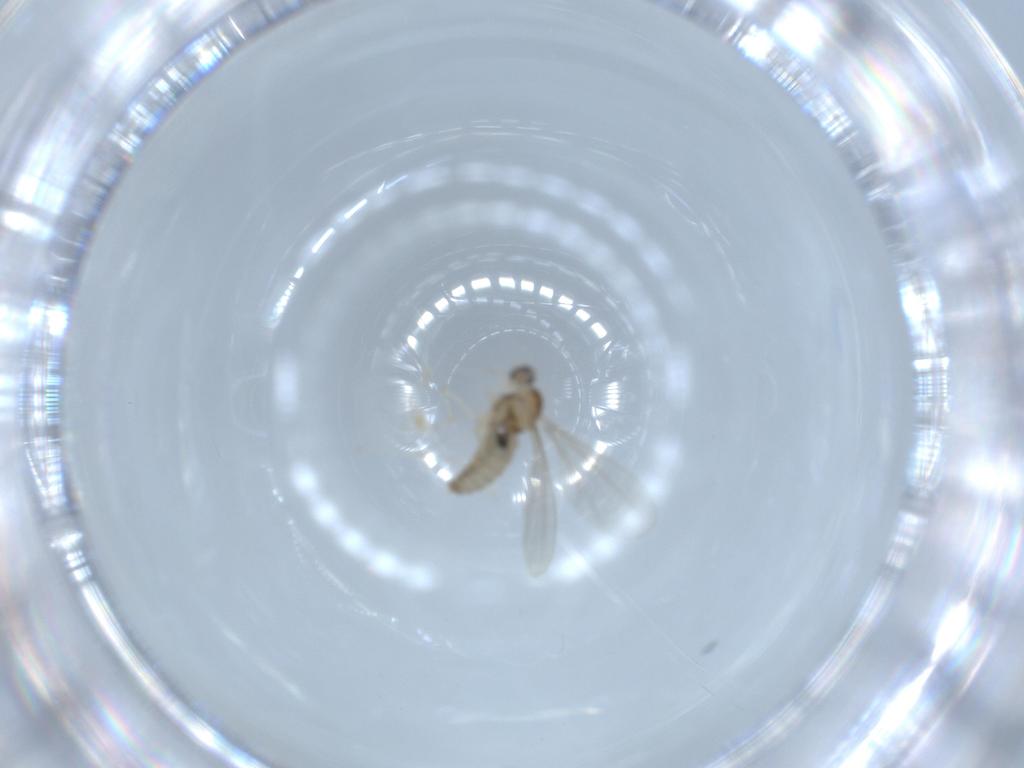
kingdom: Animalia
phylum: Arthropoda
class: Insecta
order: Diptera
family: Cecidomyiidae
